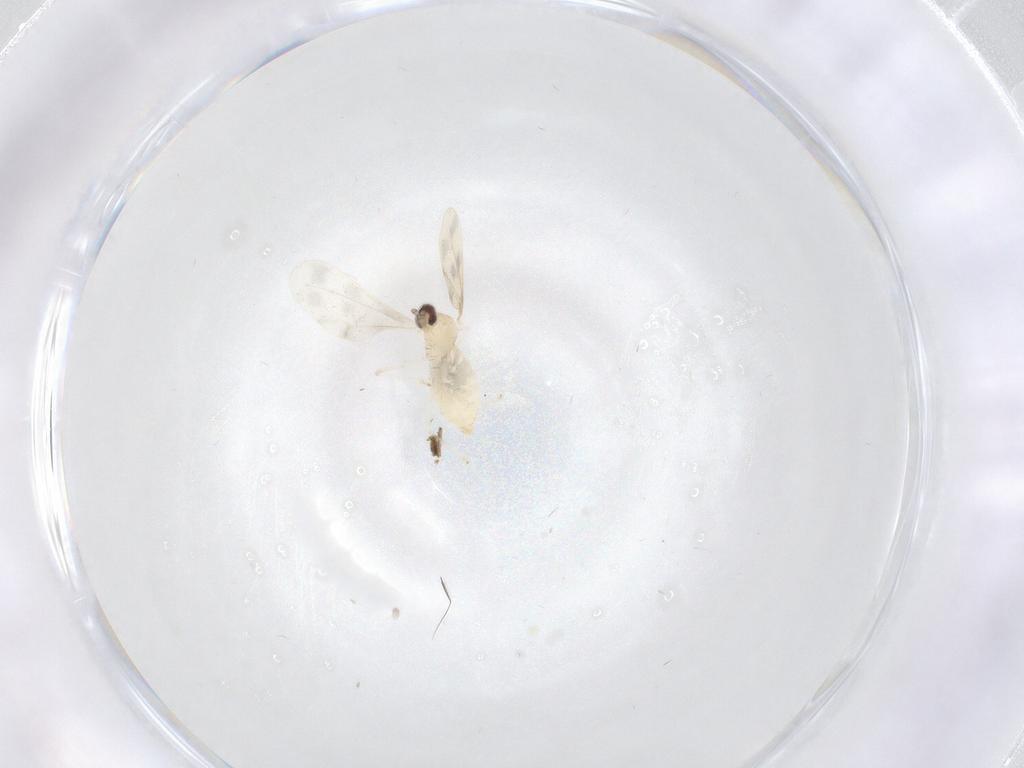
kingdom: Animalia
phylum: Arthropoda
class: Insecta
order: Diptera
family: Cecidomyiidae
